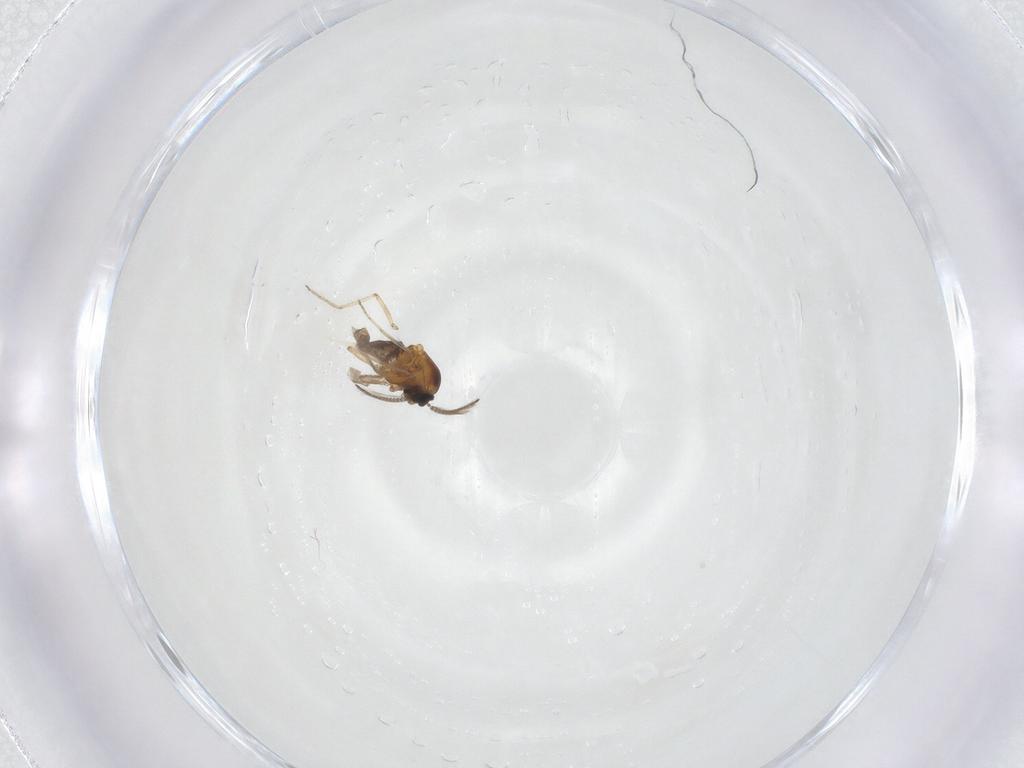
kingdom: Animalia
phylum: Arthropoda
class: Insecta
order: Diptera
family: Ceratopogonidae
